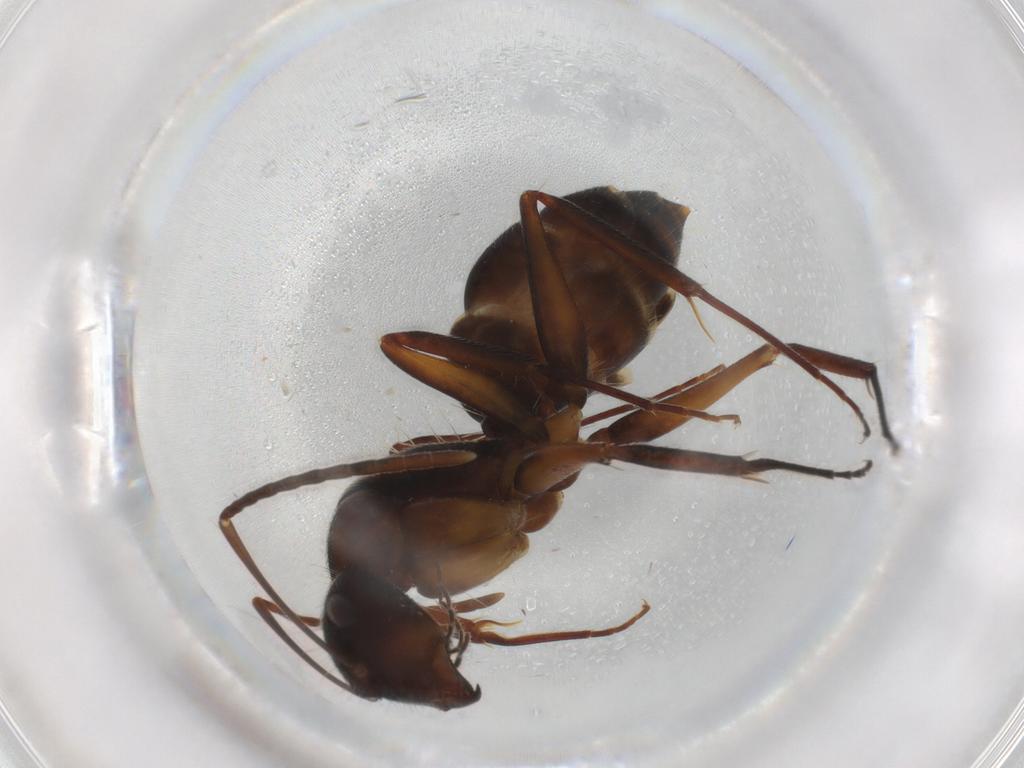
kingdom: Animalia
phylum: Arthropoda
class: Insecta
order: Hymenoptera
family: Formicidae
